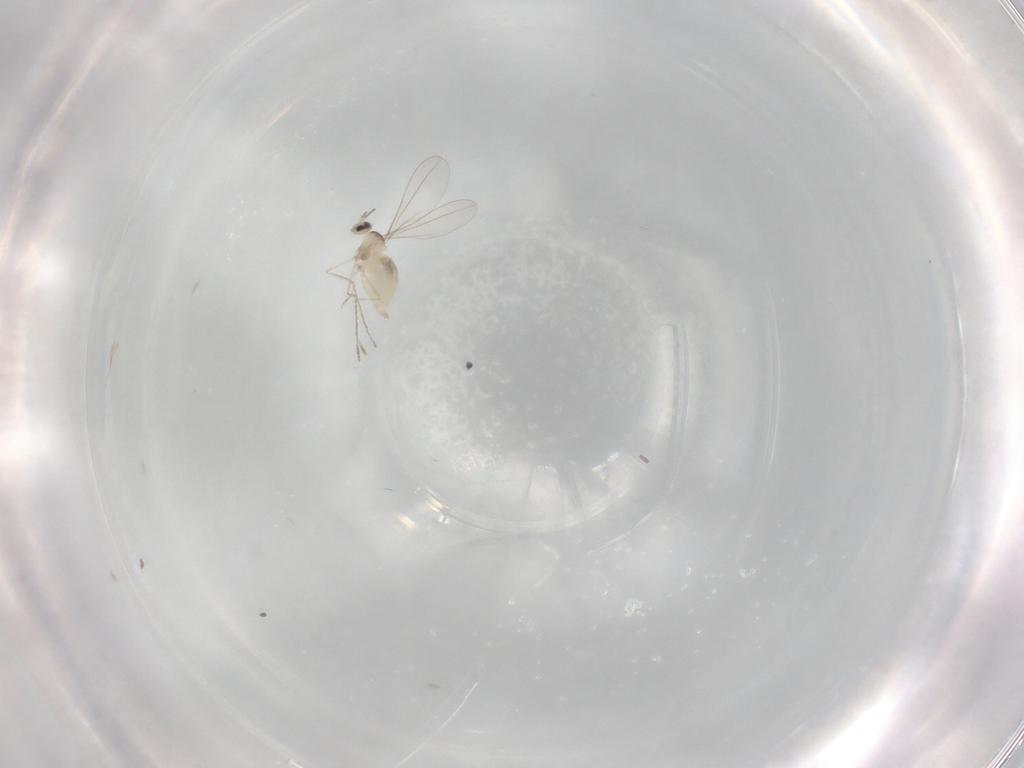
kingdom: Animalia
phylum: Arthropoda
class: Insecta
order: Diptera
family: Cecidomyiidae
